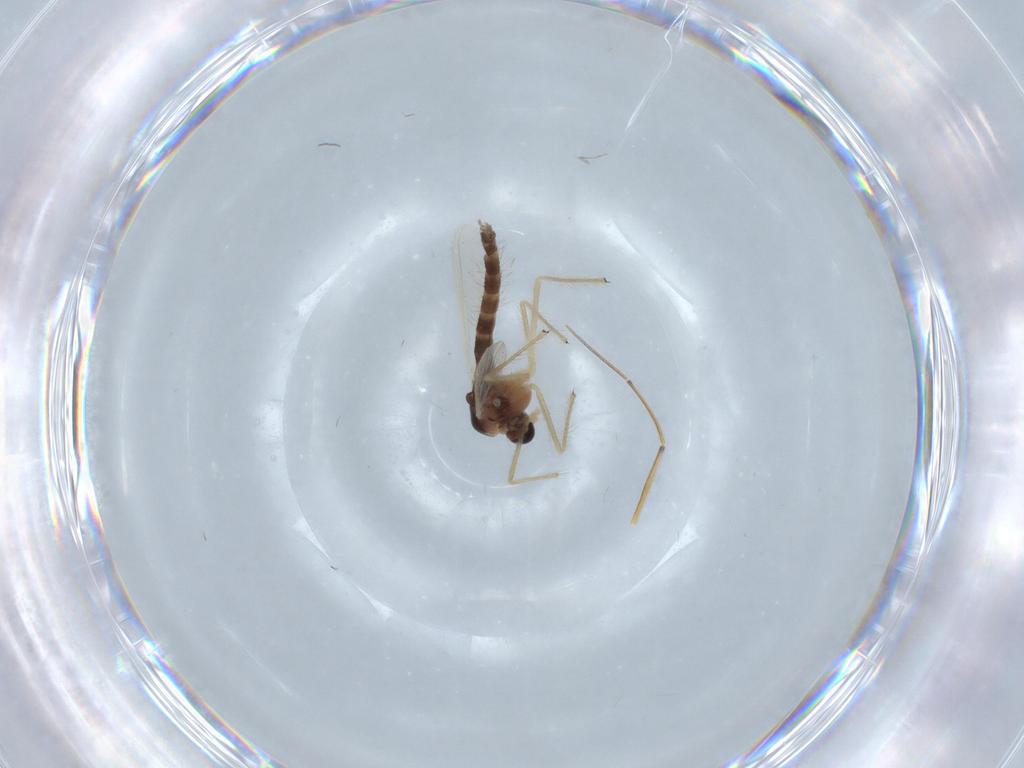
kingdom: Animalia
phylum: Arthropoda
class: Insecta
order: Diptera
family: Chironomidae
